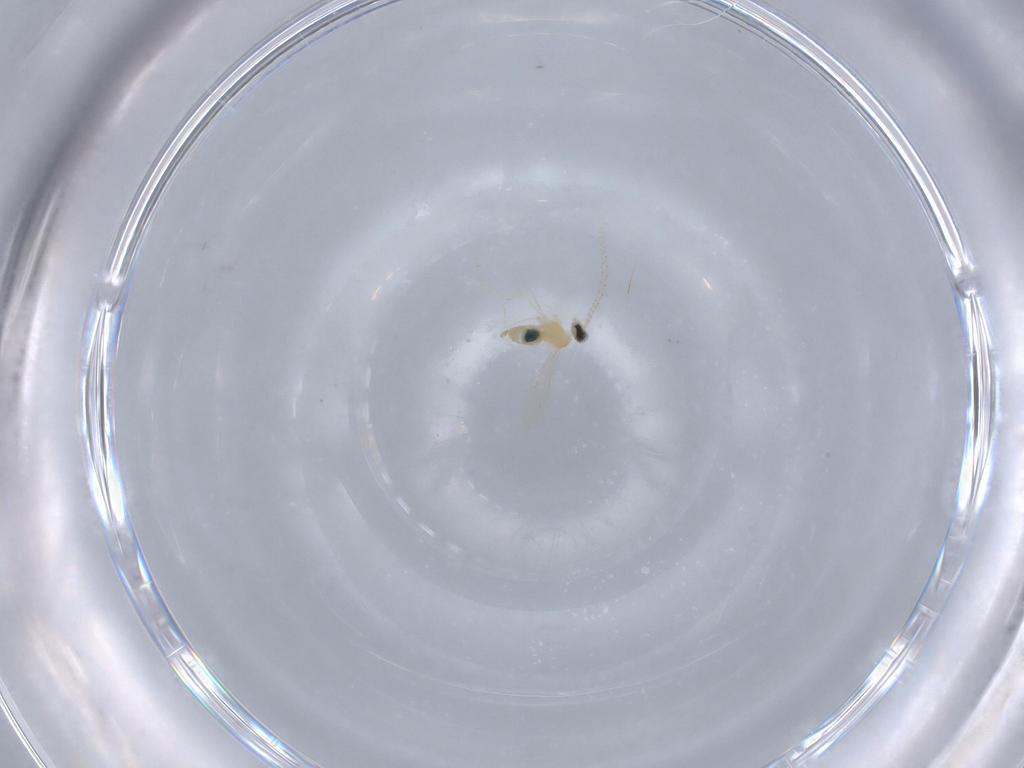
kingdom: Animalia
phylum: Arthropoda
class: Insecta
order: Diptera
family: Cecidomyiidae
